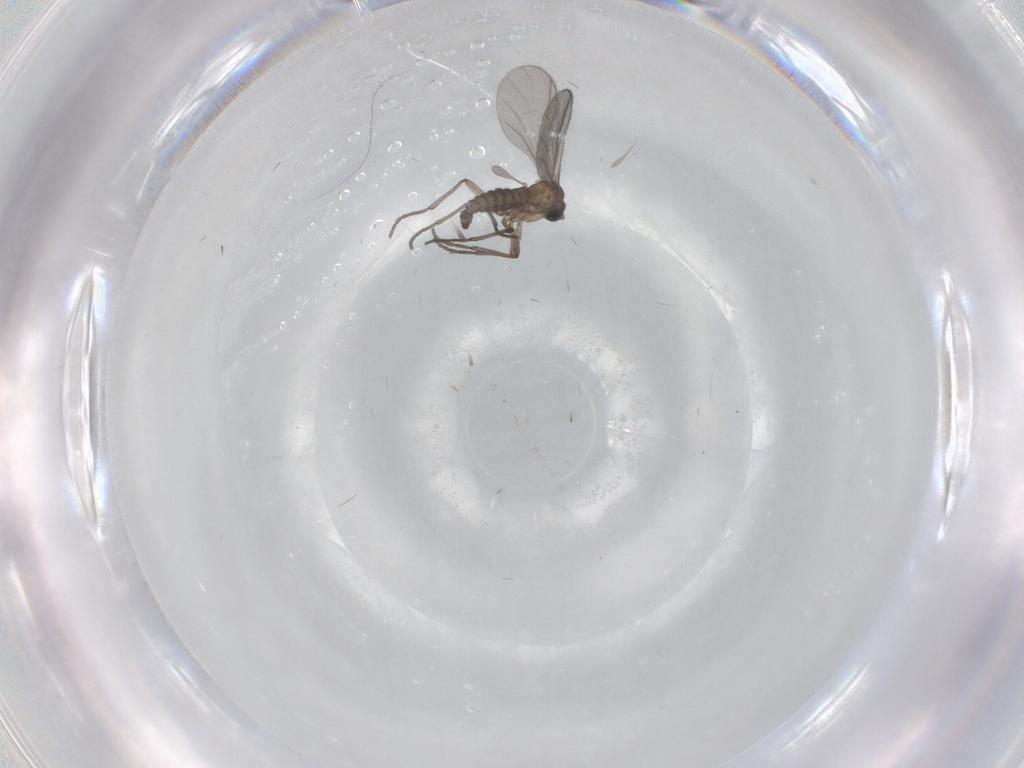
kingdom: Animalia
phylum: Arthropoda
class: Insecta
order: Diptera
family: Sciaridae
